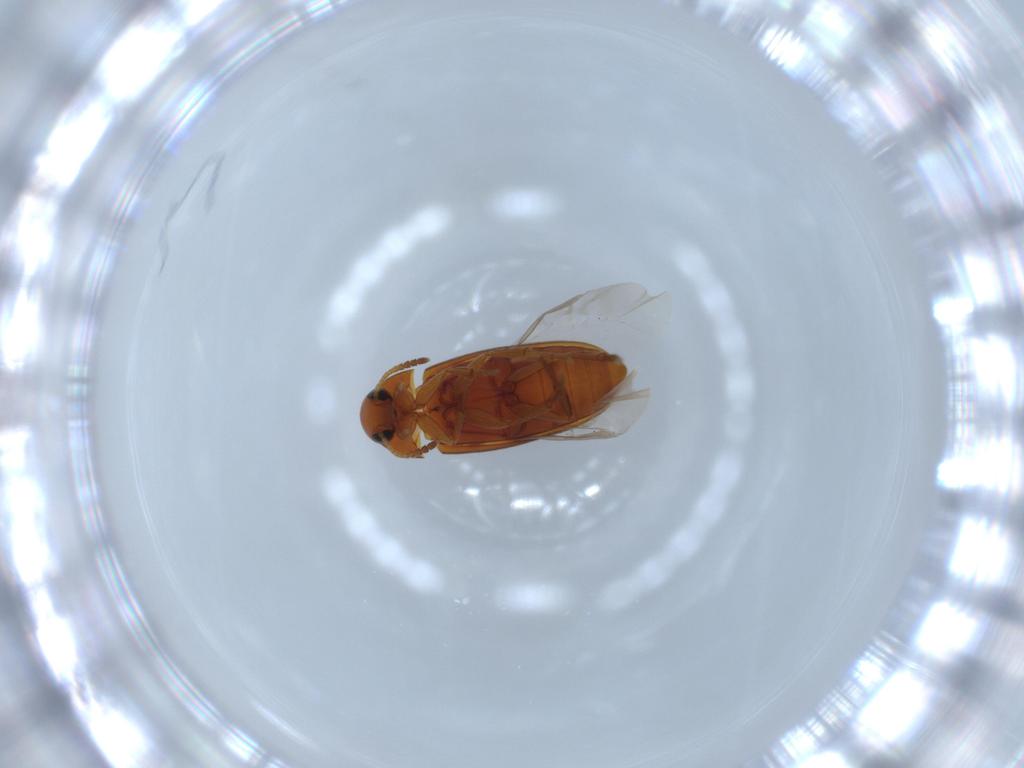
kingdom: Animalia
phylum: Arthropoda
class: Insecta
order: Coleoptera
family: Scraptiidae
